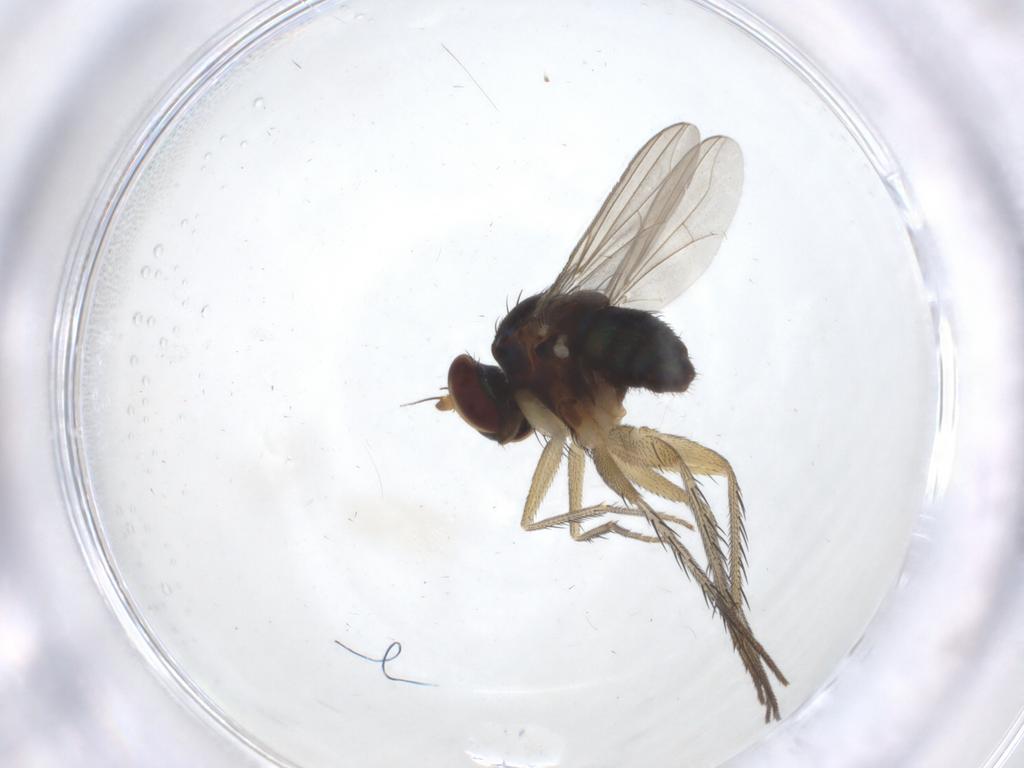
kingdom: Animalia
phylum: Arthropoda
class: Insecta
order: Diptera
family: Dolichopodidae
